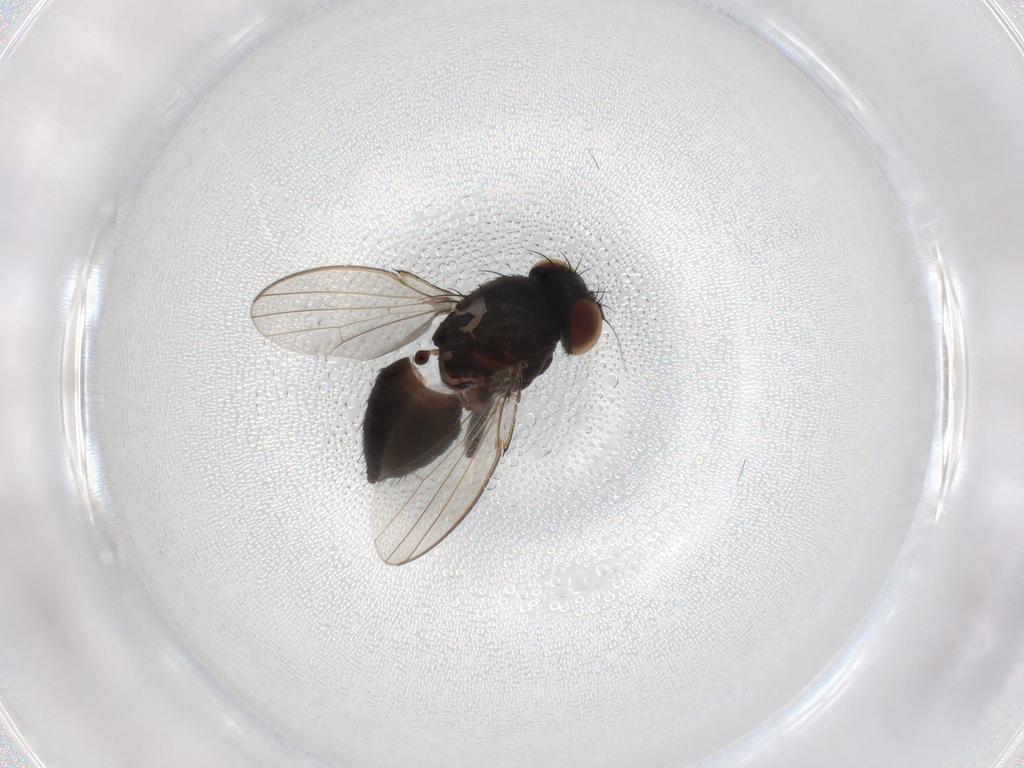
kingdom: Animalia
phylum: Arthropoda
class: Insecta
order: Diptera
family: Milichiidae
